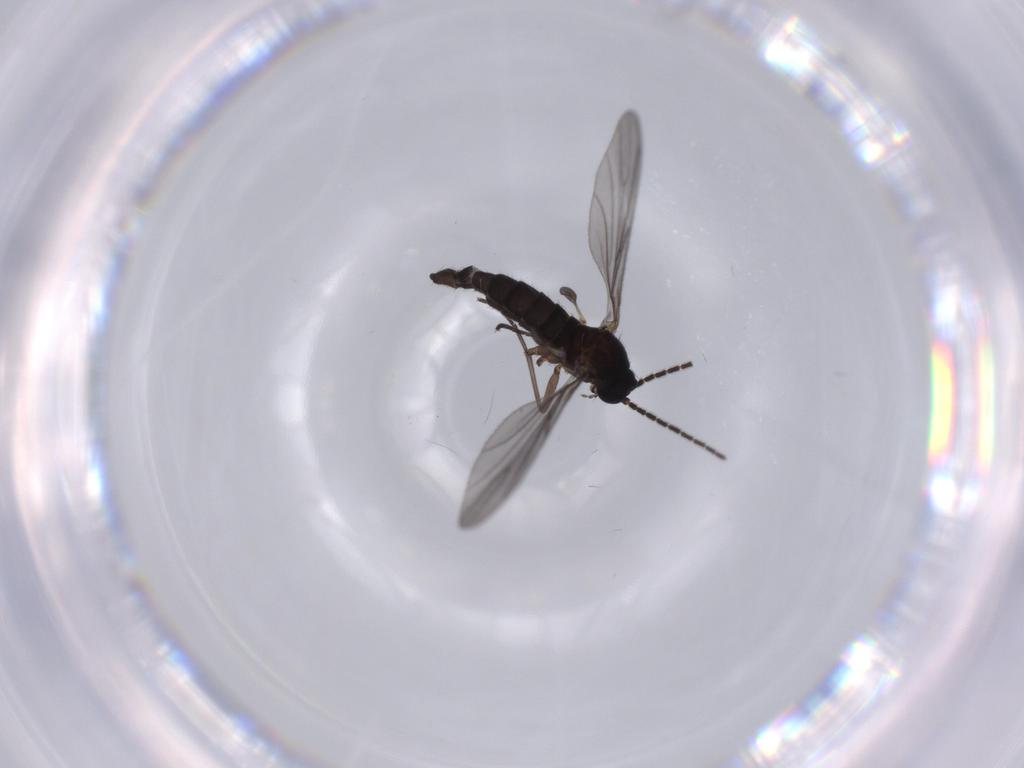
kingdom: Animalia
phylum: Arthropoda
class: Insecta
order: Diptera
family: Sciaridae
